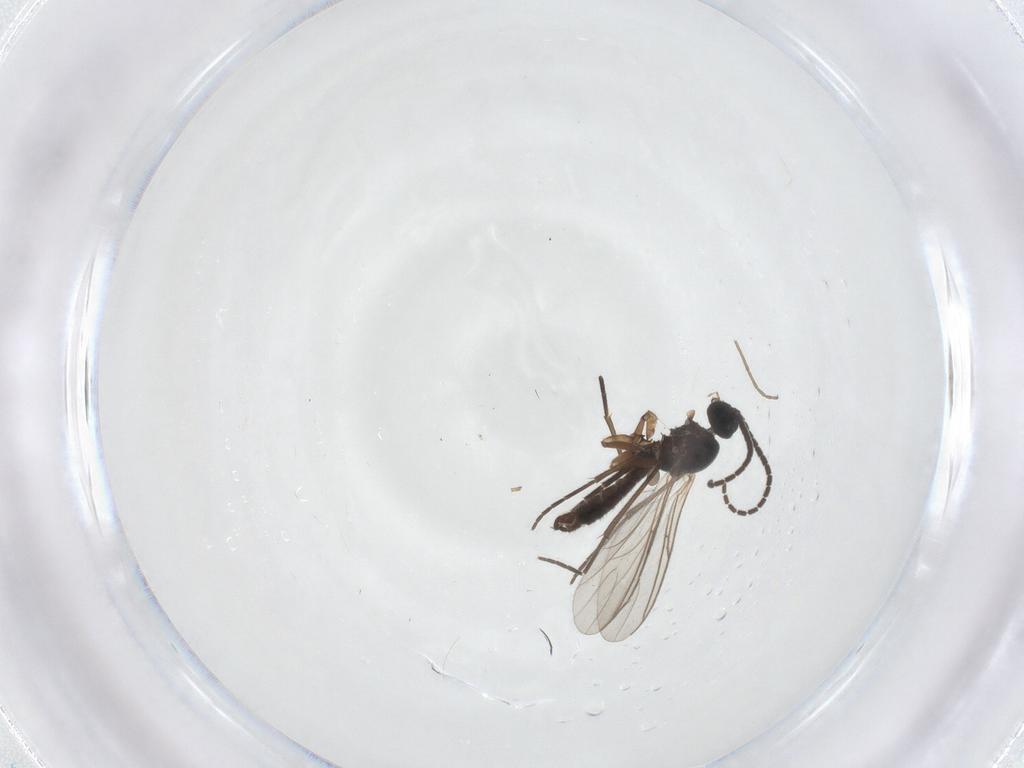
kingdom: Animalia
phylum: Arthropoda
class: Insecta
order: Diptera
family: Sciaridae
